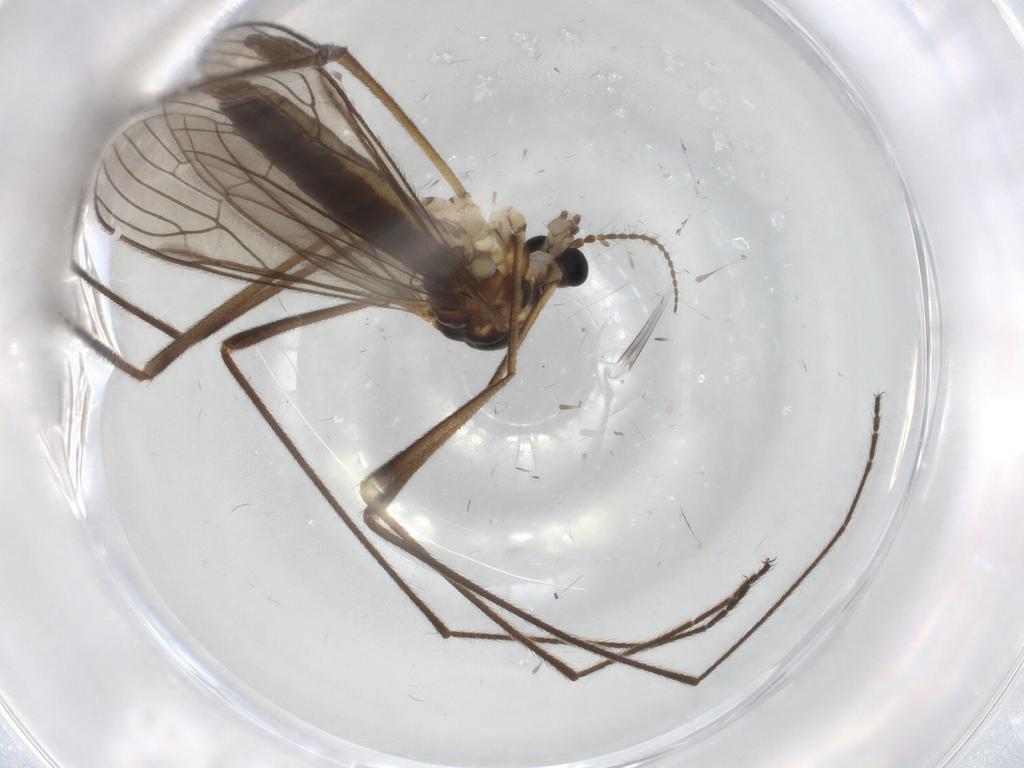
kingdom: Animalia
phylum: Arthropoda
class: Insecta
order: Diptera
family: Limoniidae
